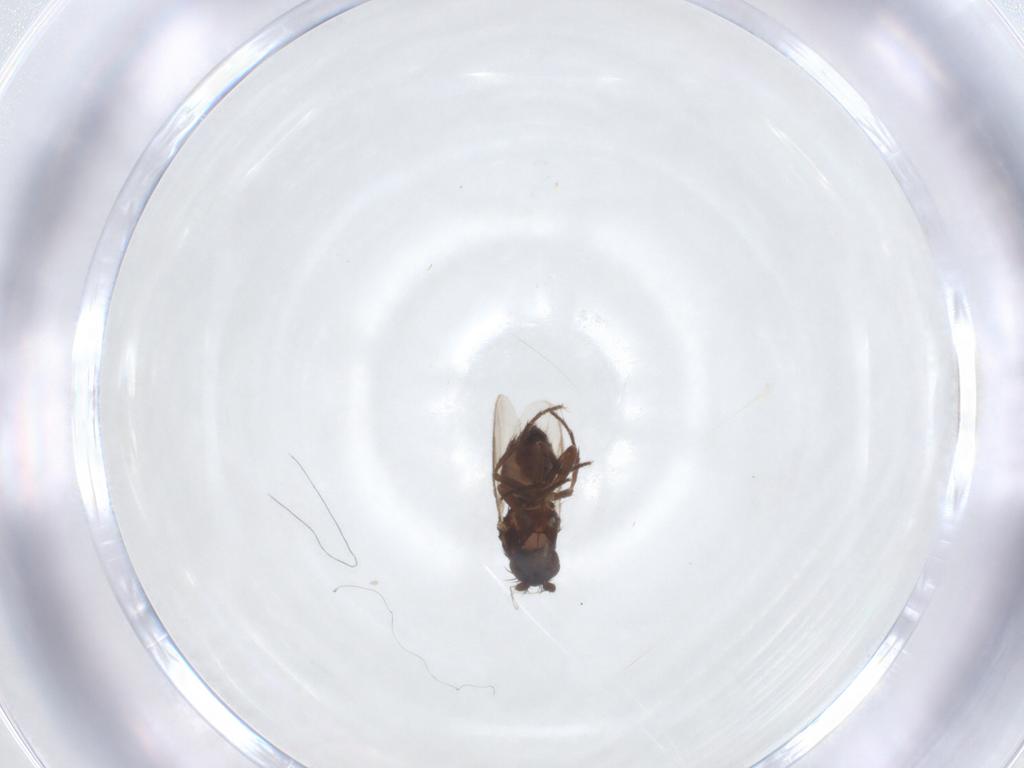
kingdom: Animalia
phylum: Arthropoda
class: Insecta
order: Diptera
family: Sphaeroceridae
